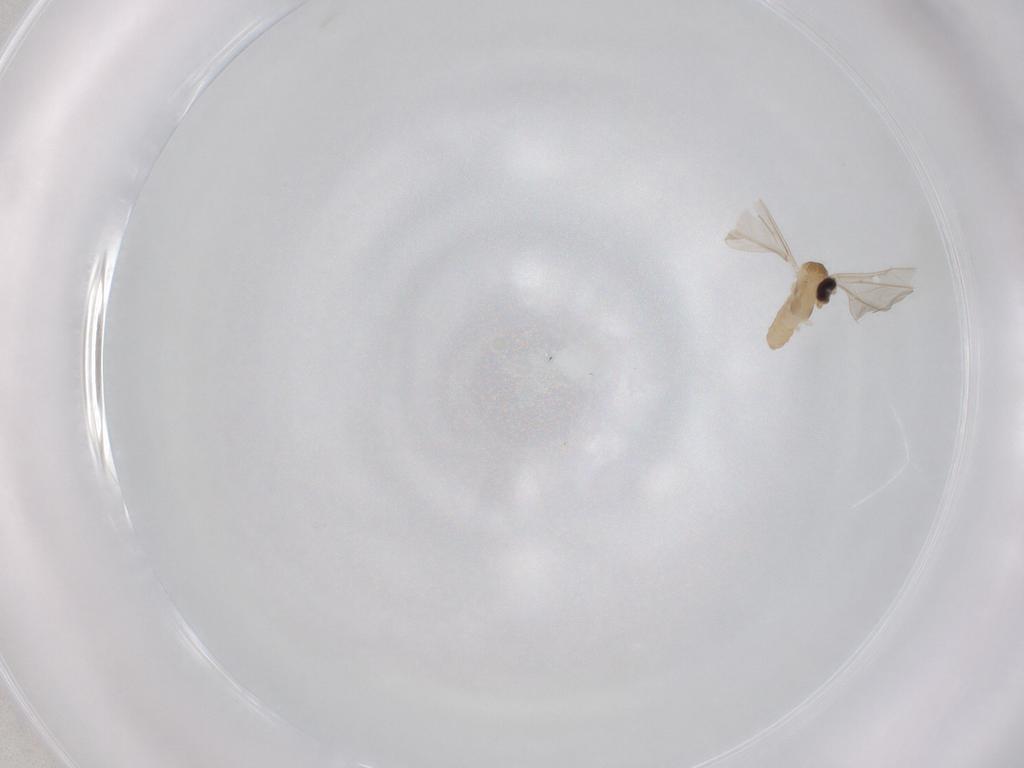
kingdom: Animalia
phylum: Arthropoda
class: Insecta
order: Diptera
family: Cecidomyiidae
